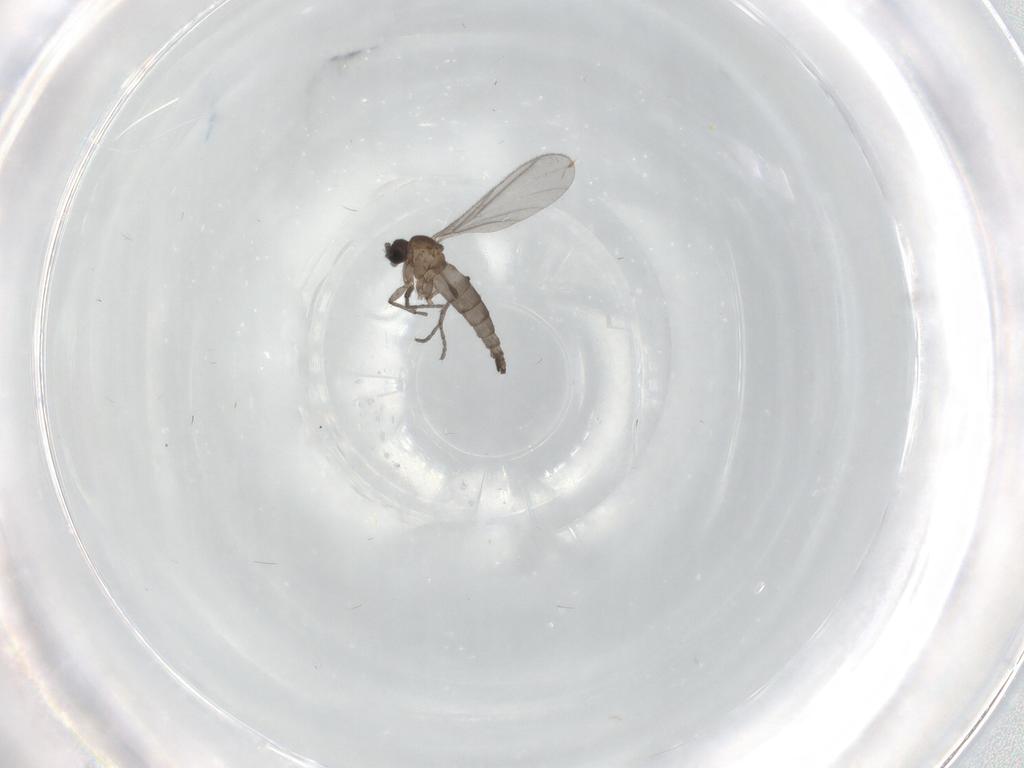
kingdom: Animalia
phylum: Arthropoda
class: Insecta
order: Diptera
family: Sciaridae
